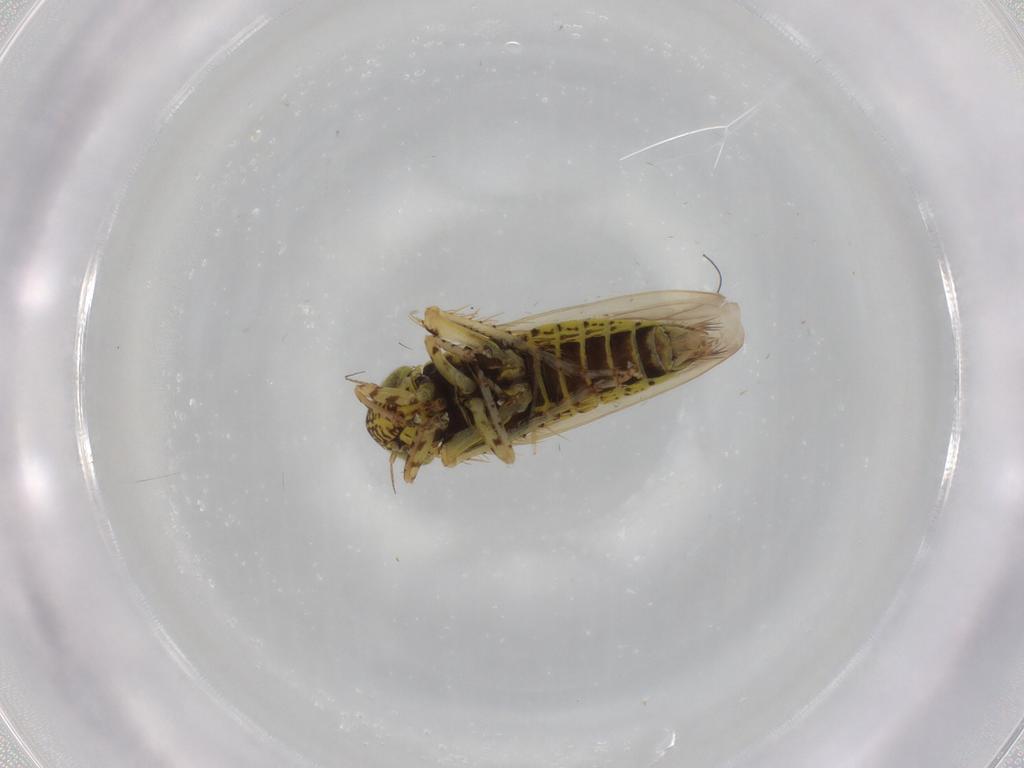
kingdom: Animalia
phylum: Arthropoda
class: Insecta
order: Hemiptera
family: Cicadellidae
